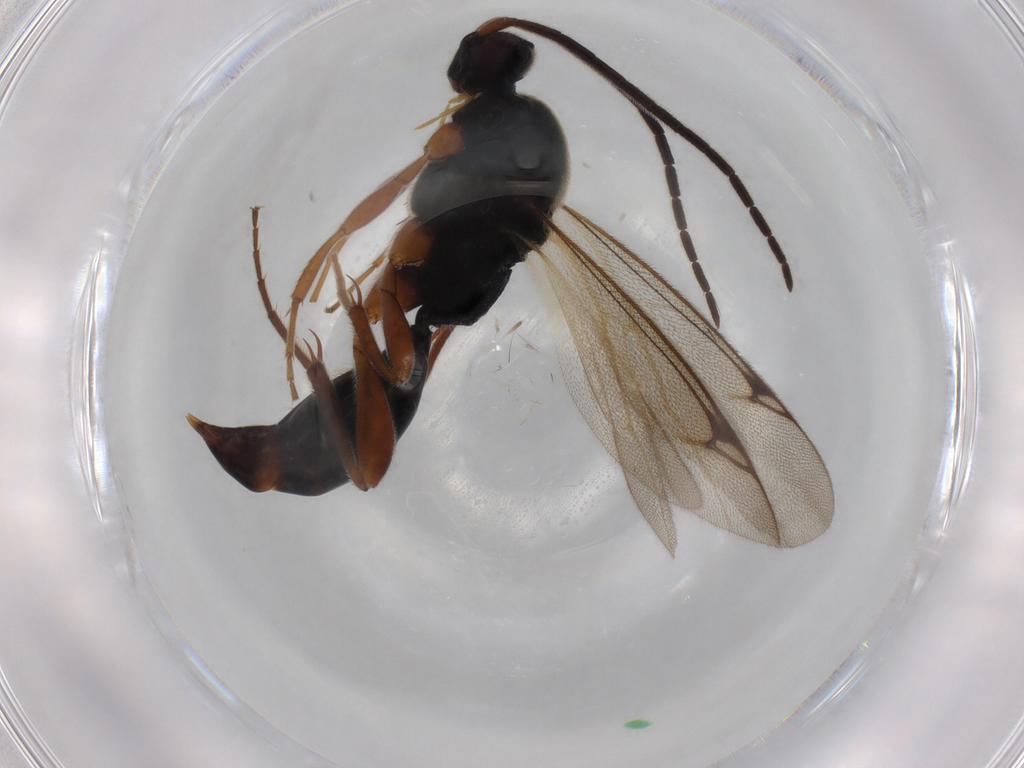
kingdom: Animalia
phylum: Arthropoda
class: Insecta
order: Hymenoptera
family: Proctotrupidae
